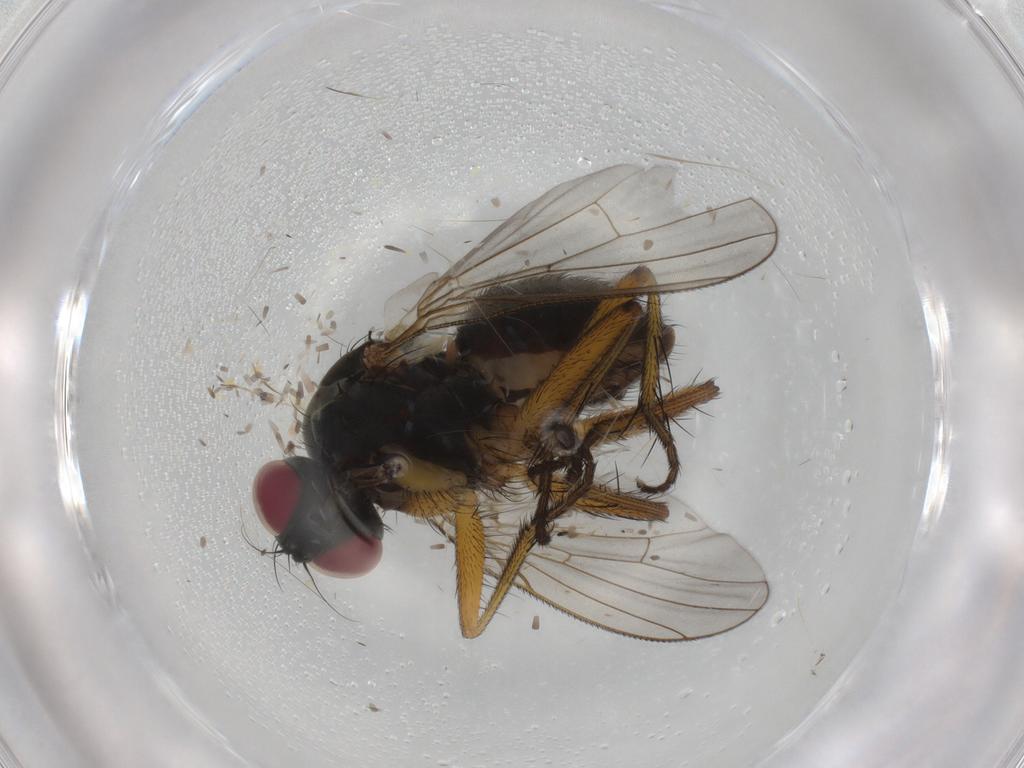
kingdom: Animalia
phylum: Arthropoda
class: Insecta
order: Diptera
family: Muscidae
